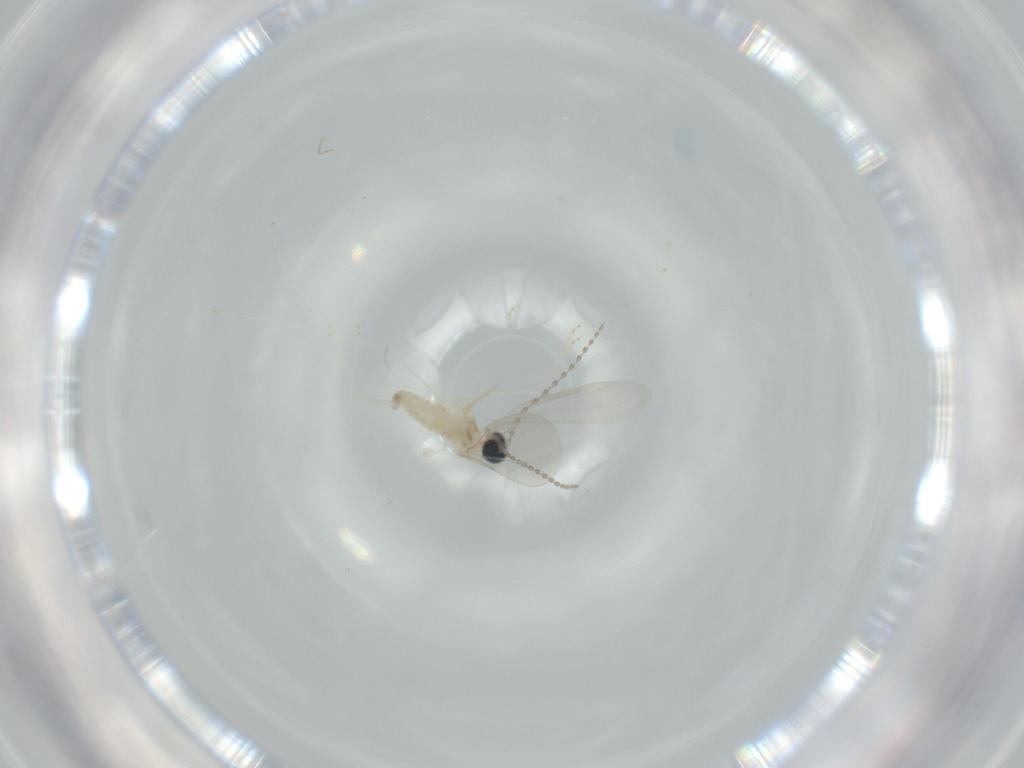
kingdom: Animalia
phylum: Arthropoda
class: Insecta
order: Diptera
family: Cecidomyiidae
